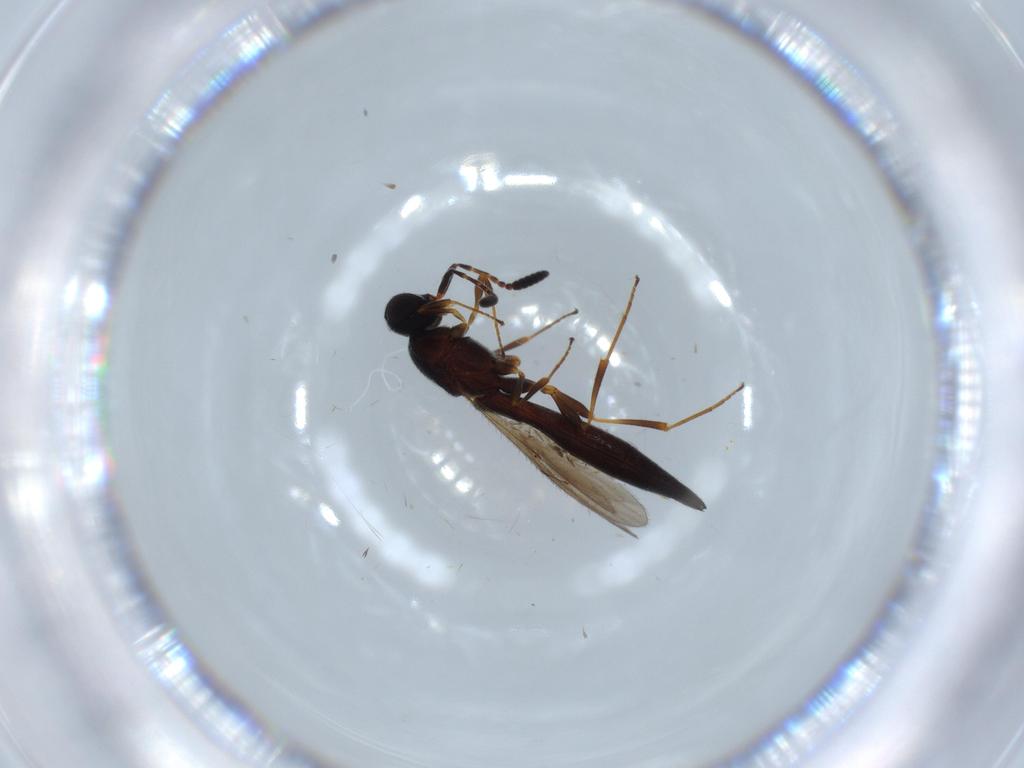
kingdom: Animalia
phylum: Arthropoda
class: Insecta
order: Hymenoptera
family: Scelionidae
